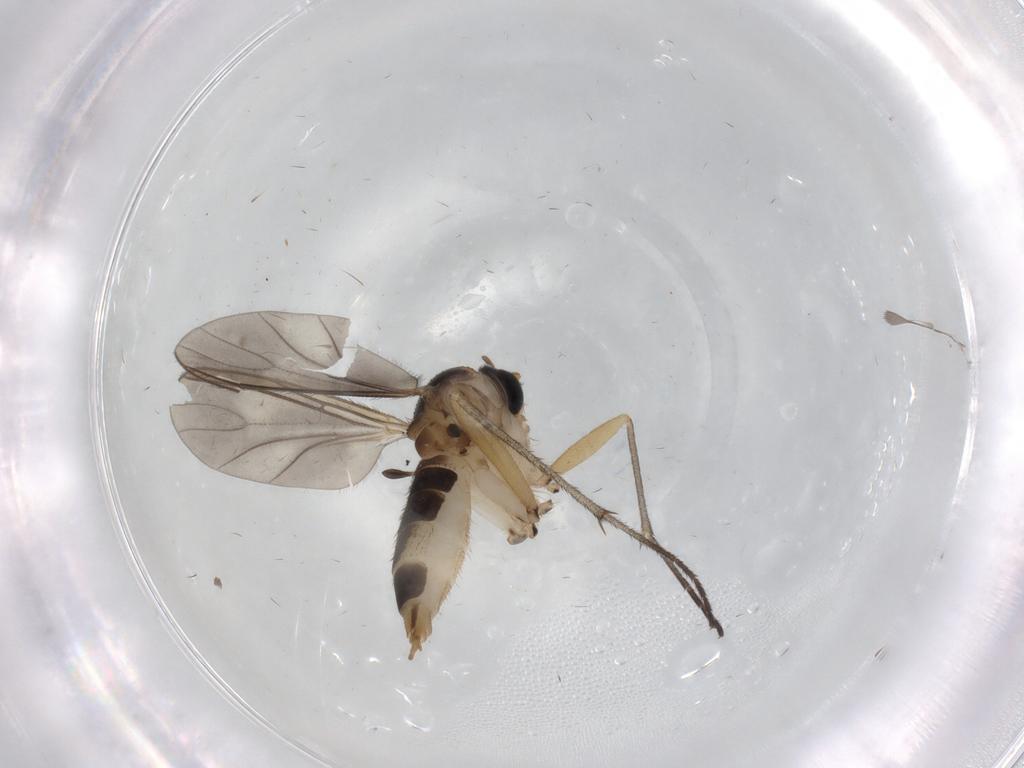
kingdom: Animalia
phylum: Arthropoda
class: Insecta
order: Diptera
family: Sciaridae
